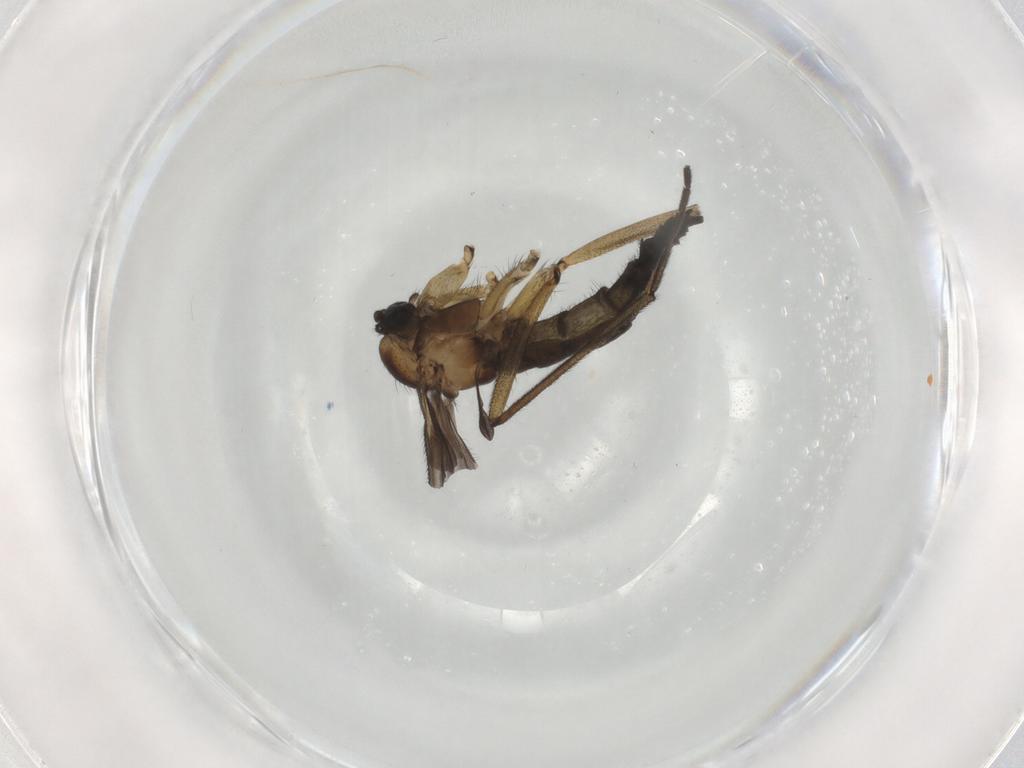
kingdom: Animalia
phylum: Arthropoda
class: Insecta
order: Diptera
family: Sciaridae
